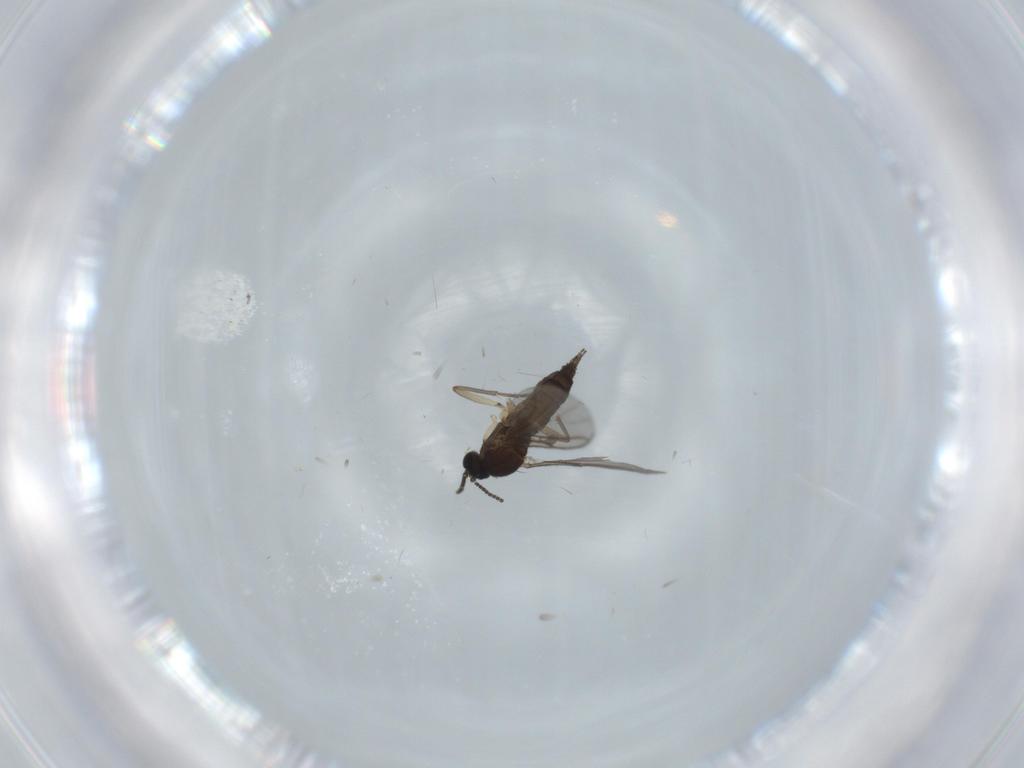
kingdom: Animalia
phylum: Arthropoda
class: Insecta
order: Diptera
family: Sciaridae
